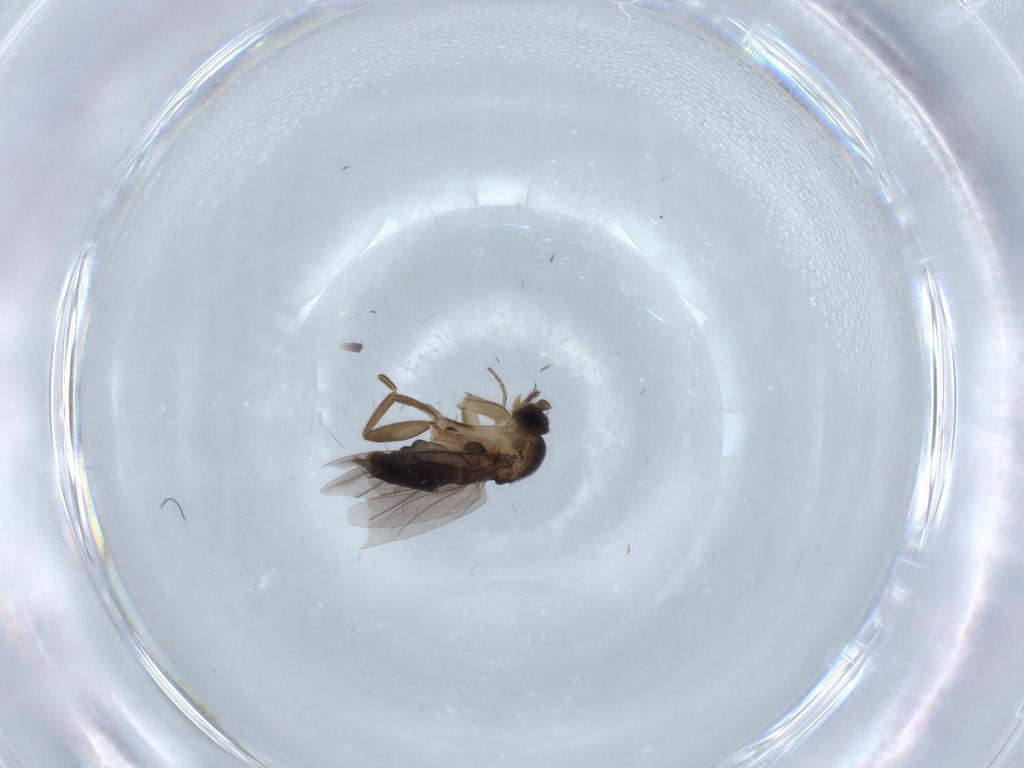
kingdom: Animalia
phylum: Arthropoda
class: Insecta
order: Diptera
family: Phoridae
